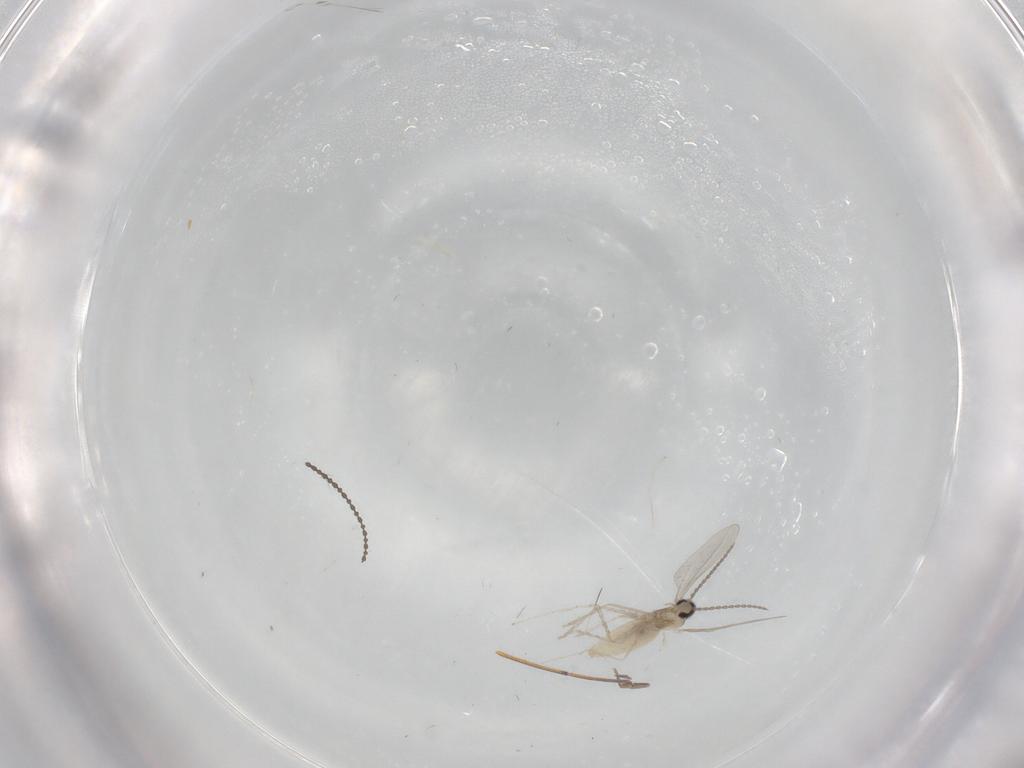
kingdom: Animalia
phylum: Arthropoda
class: Insecta
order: Diptera
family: Cecidomyiidae
